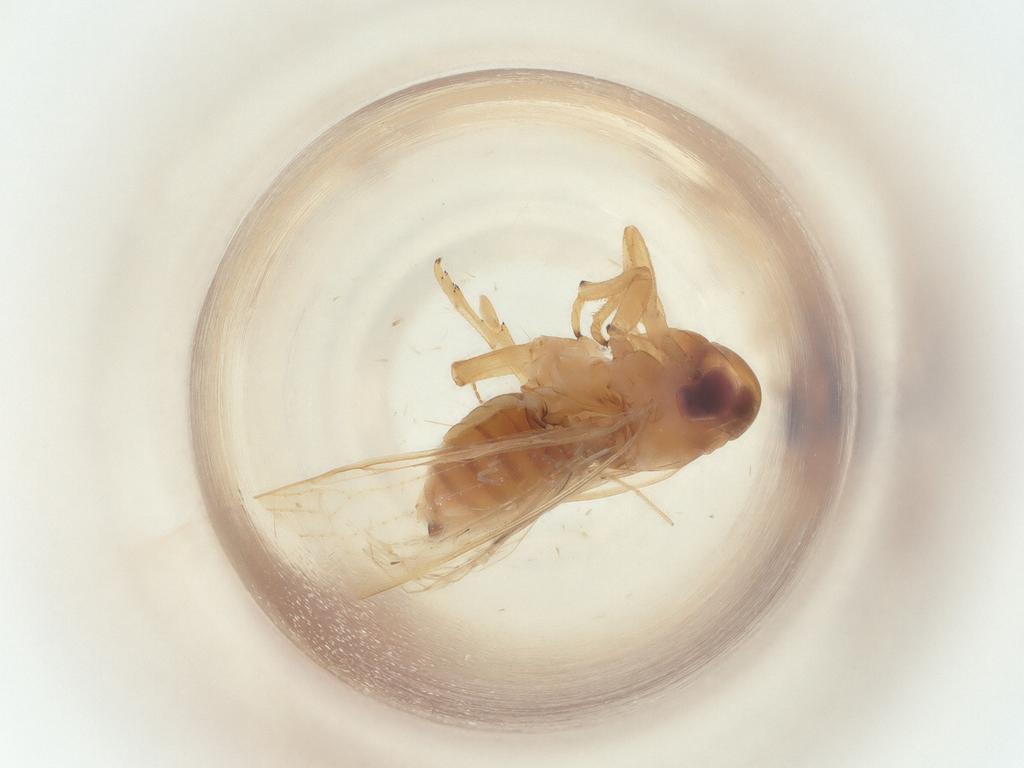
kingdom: Animalia
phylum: Arthropoda
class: Insecta
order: Hemiptera
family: Delphacidae
